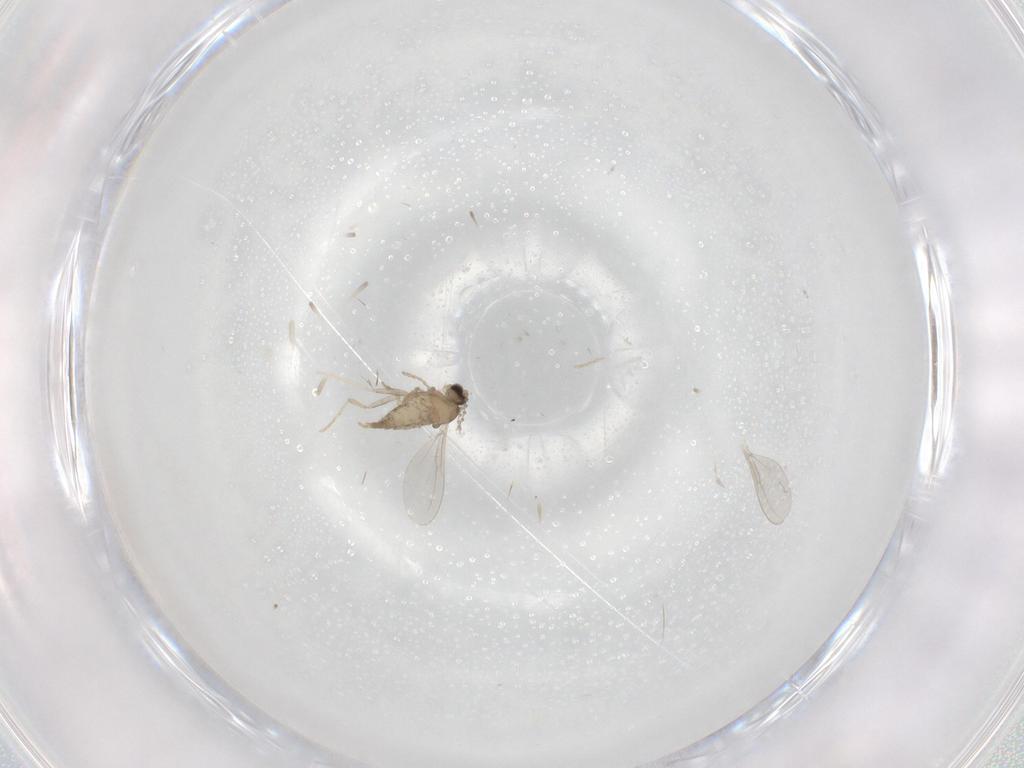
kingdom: Animalia
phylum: Arthropoda
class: Insecta
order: Diptera
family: Cecidomyiidae
